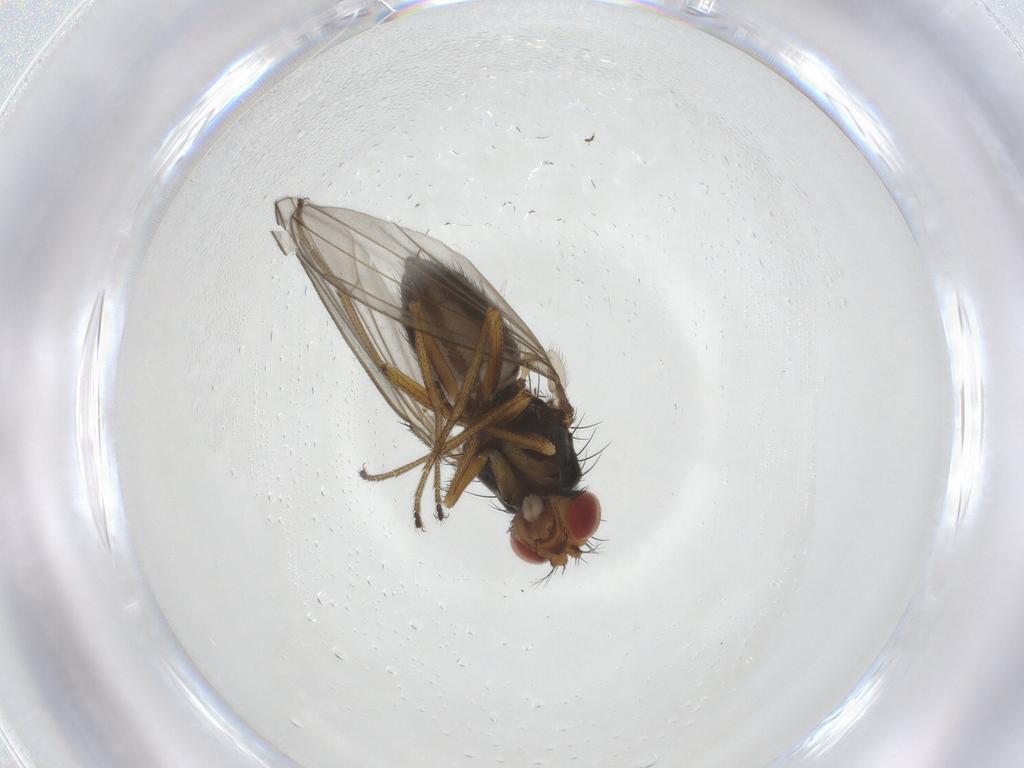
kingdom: Animalia
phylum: Arthropoda
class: Insecta
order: Diptera
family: Drosophilidae
